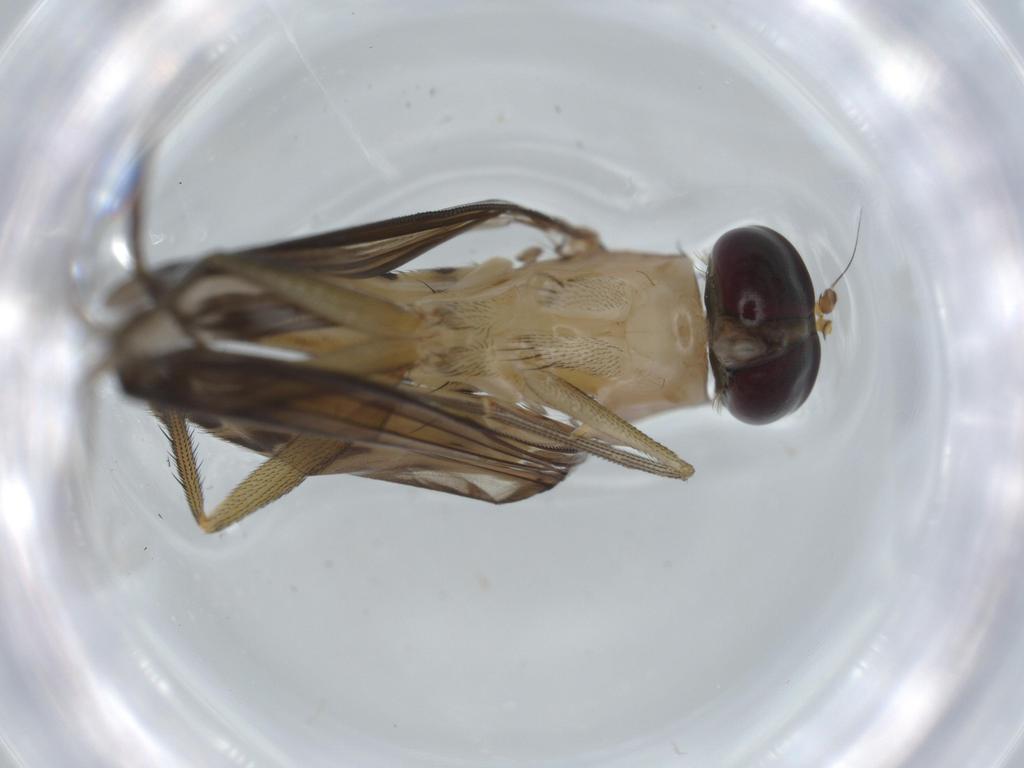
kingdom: Animalia
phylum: Arthropoda
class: Insecta
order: Diptera
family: Dolichopodidae
